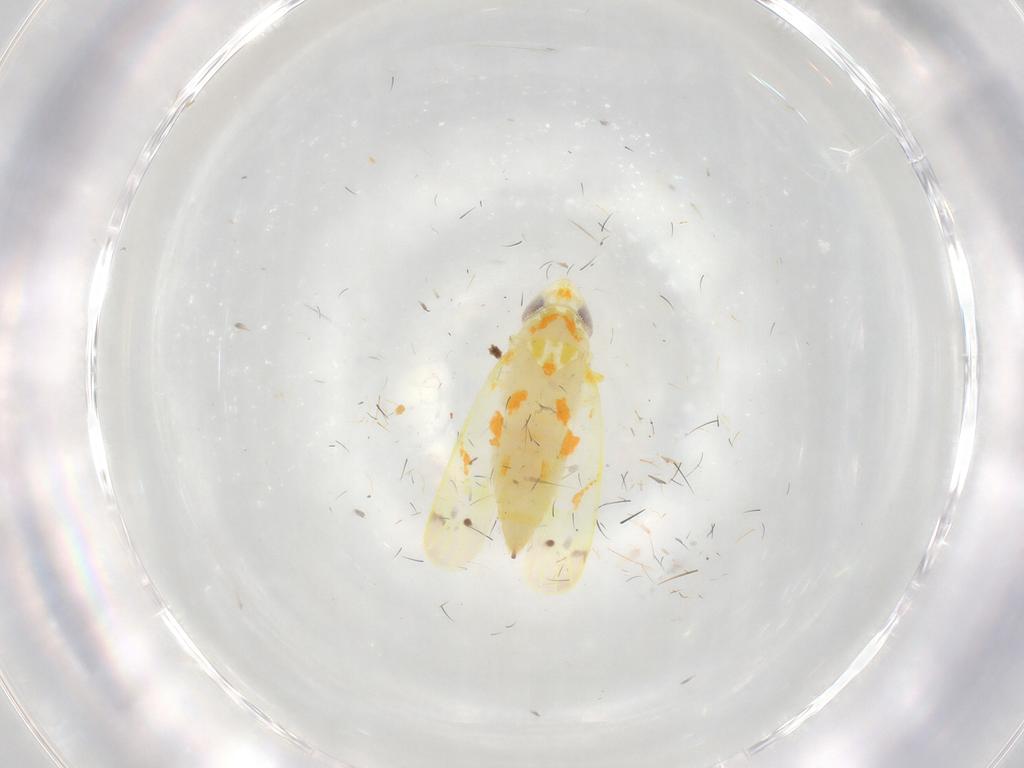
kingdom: Animalia
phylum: Arthropoda
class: Insecta
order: Hemiptera
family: Cicadellidae
